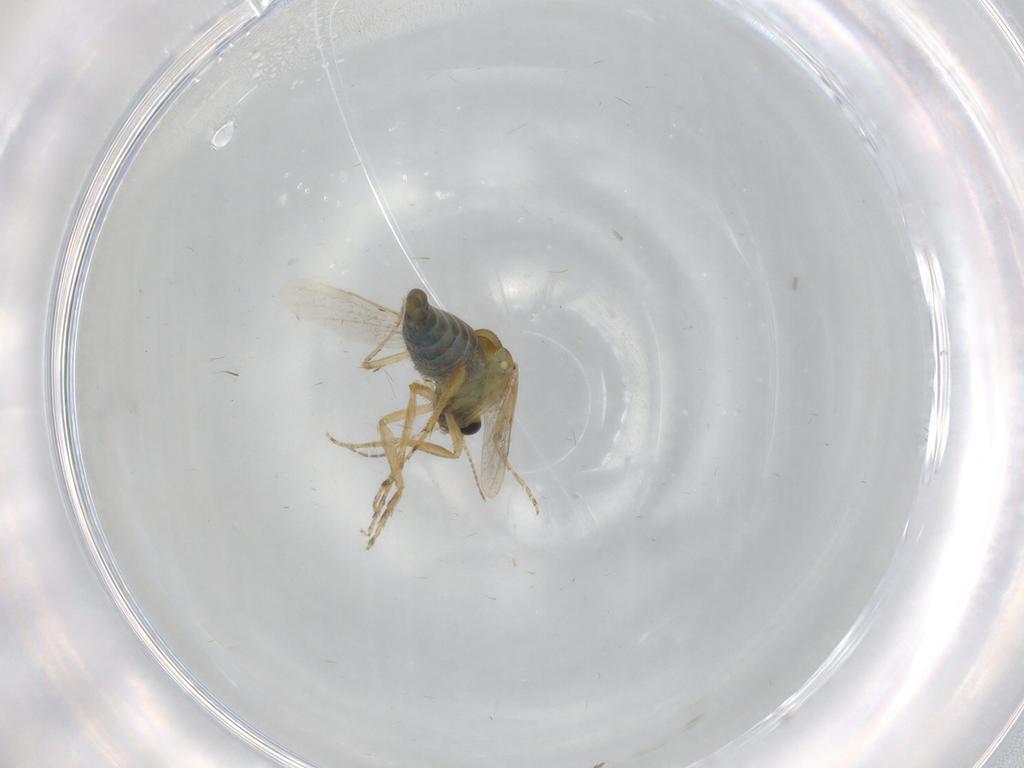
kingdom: Animalia
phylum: Arthropoda
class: Insecta
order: Diptera
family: Ceratopogonidae
